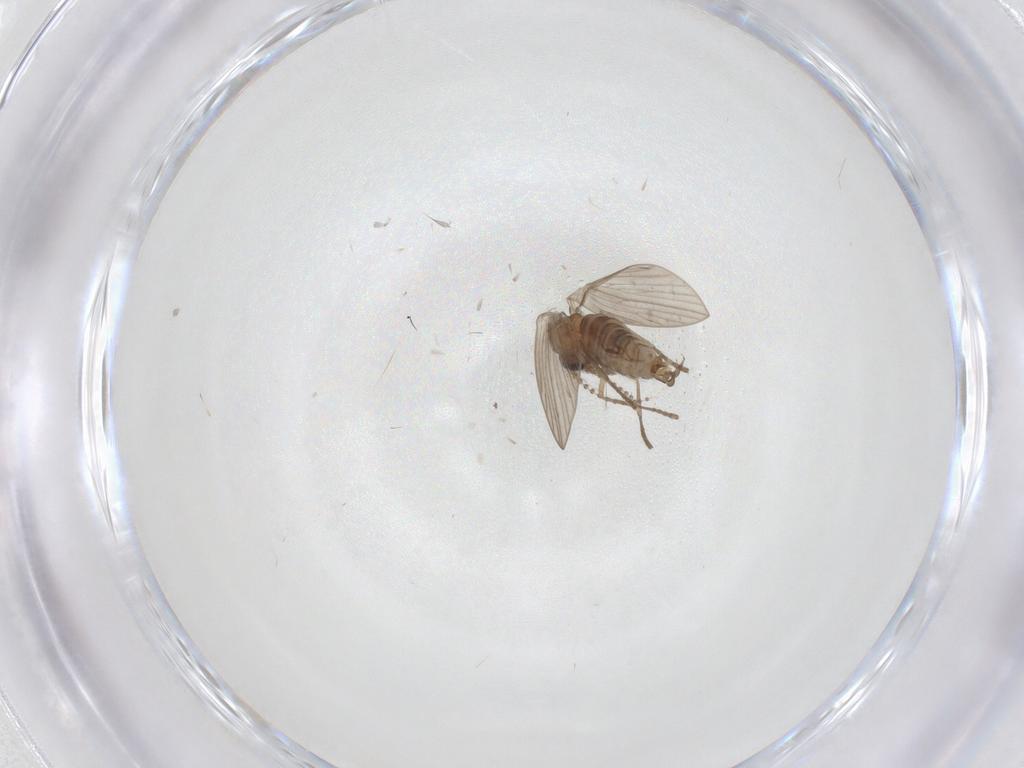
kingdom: Animalia
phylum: Arthropoda
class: Insecta
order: Diptera
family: Psychodidae
